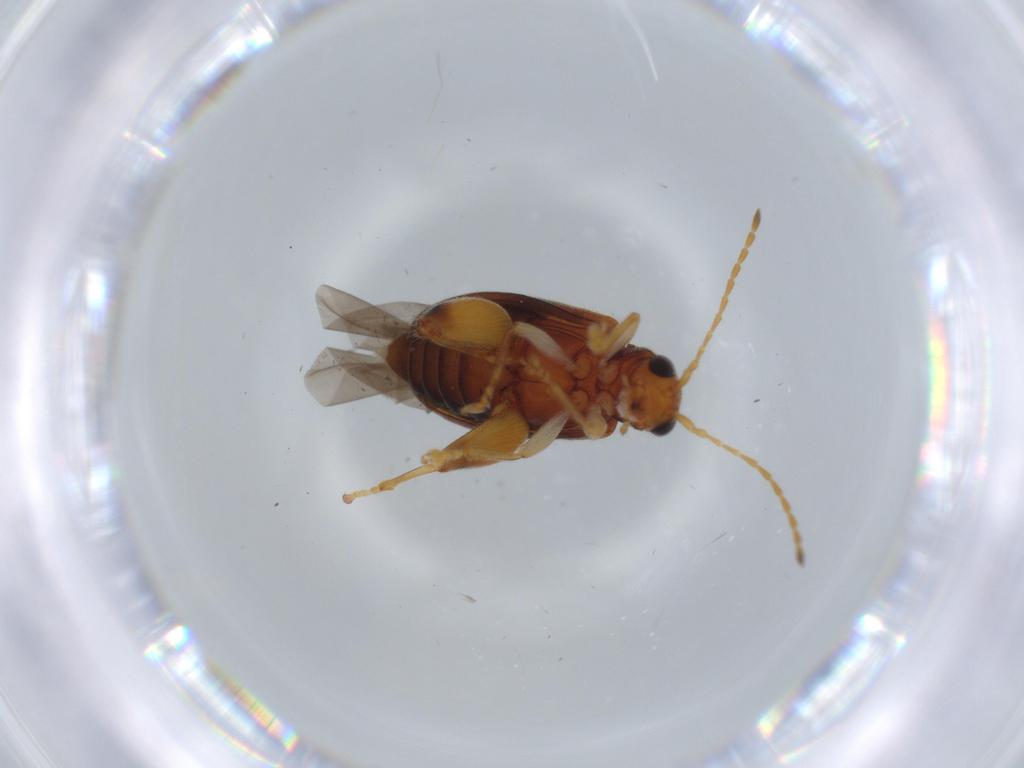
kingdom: Animalia
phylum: Arthropoda
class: Insecta
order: Coleoptera
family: Chrysomelidae
